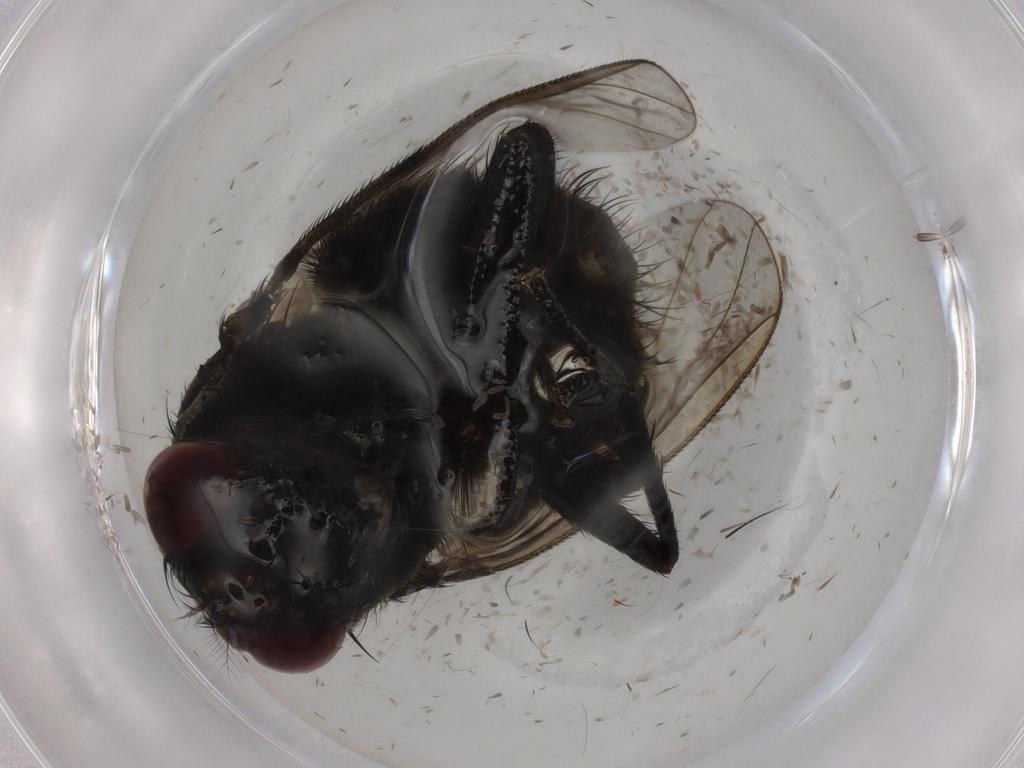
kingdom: Animalia
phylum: Arthropoda
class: Insecta
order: Diptera
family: Muscidae
